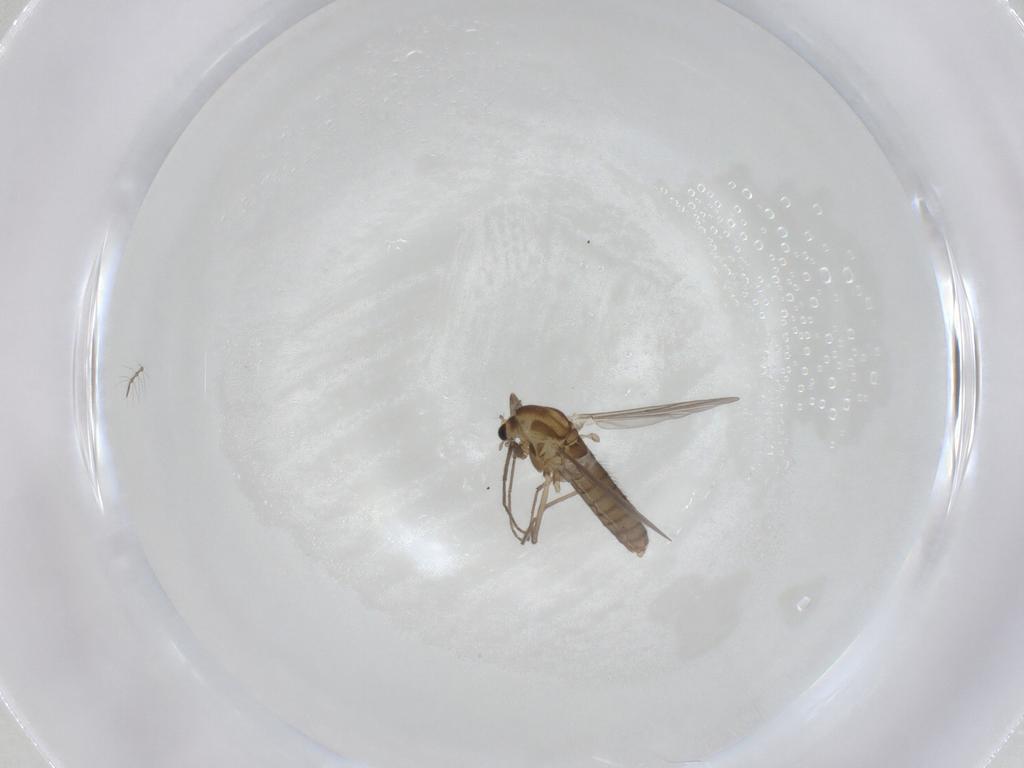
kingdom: Animalia
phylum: Arthropoda
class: Insecta
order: Diptera
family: Chironomidae
